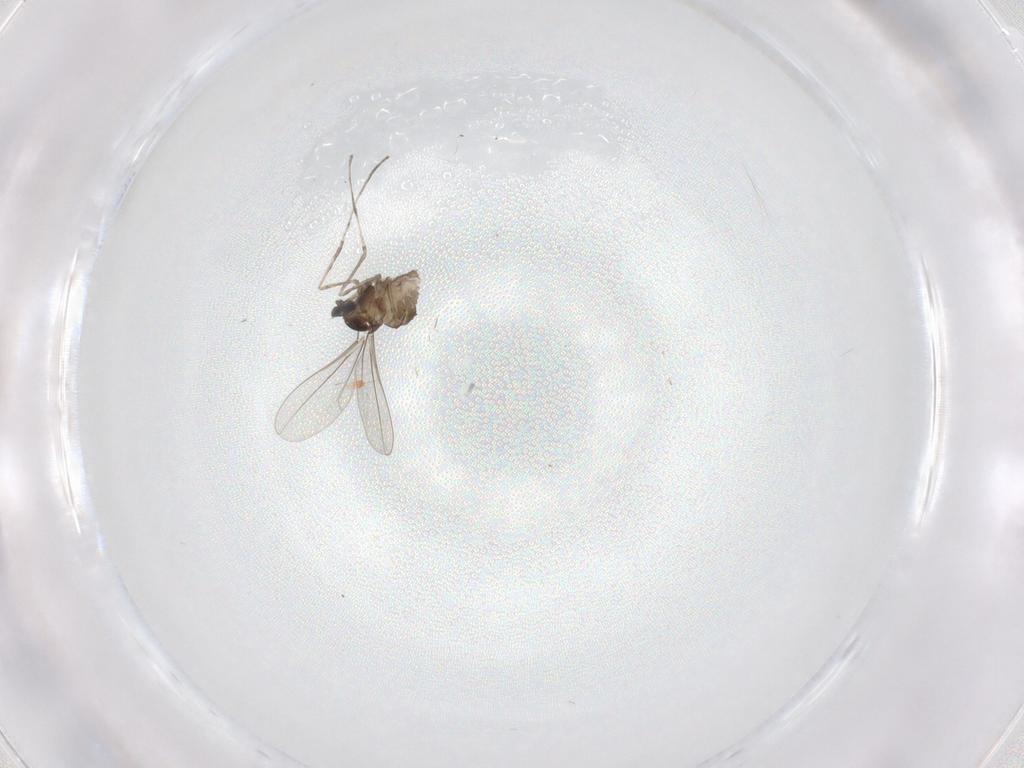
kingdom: Animalia
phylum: Arthropoda
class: Insecta
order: Diptera
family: Cecidomyiidae
